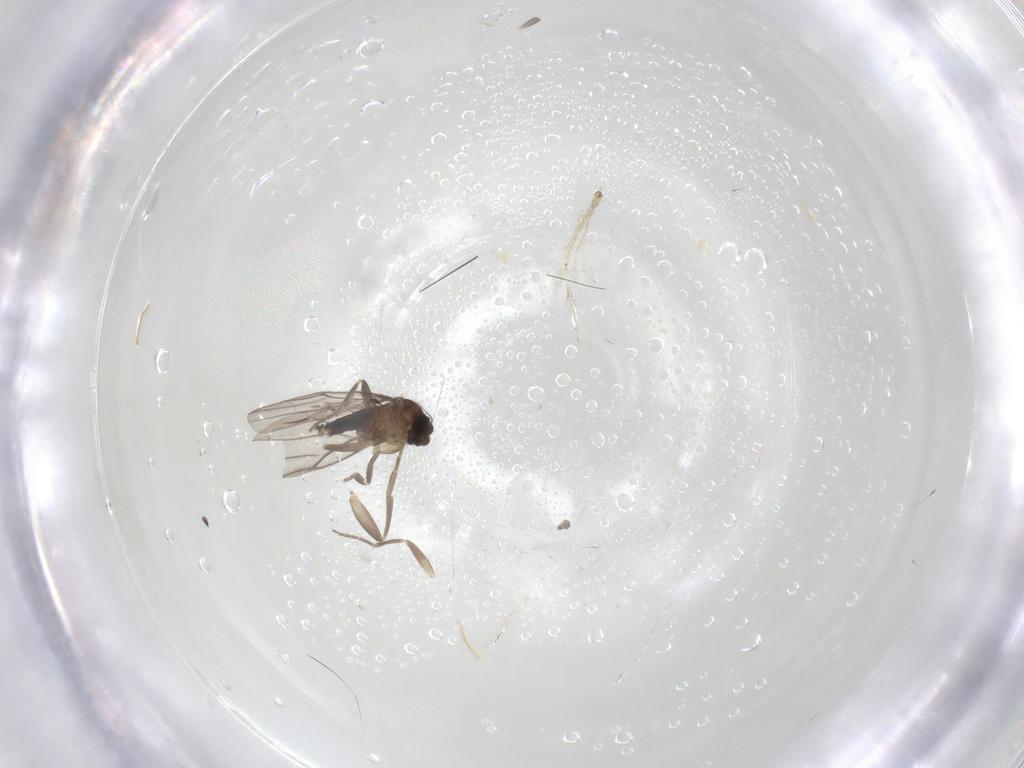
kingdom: Animalia
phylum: Arthropoda
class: Insecta
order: Diptera
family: Phoridae
